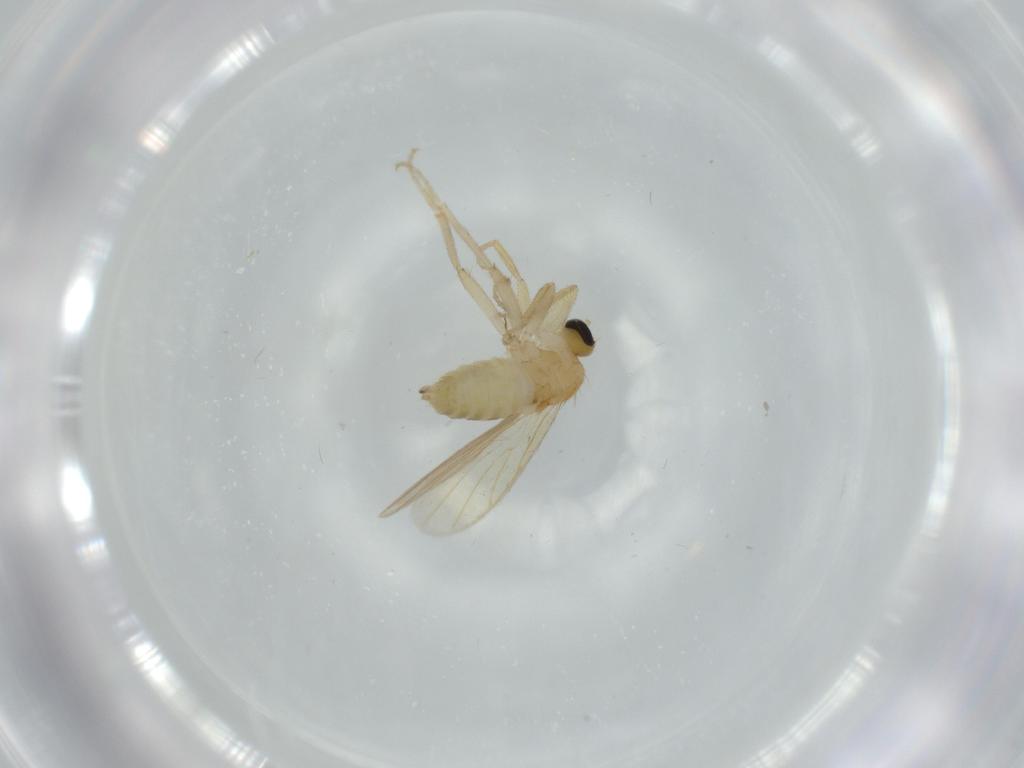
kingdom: Animalia
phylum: Arthropoda
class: Insecta
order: Diptera
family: Hybotidae
